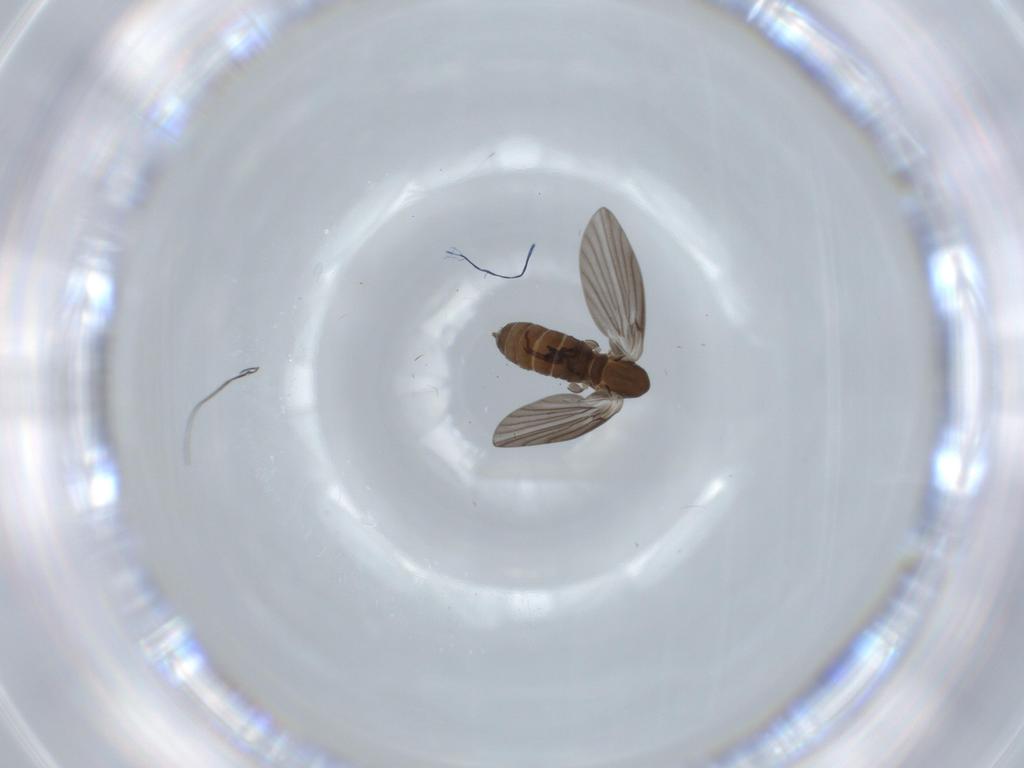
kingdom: Animalia
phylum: Arthropoda
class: Insecta
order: Diptera
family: Psychodidae
